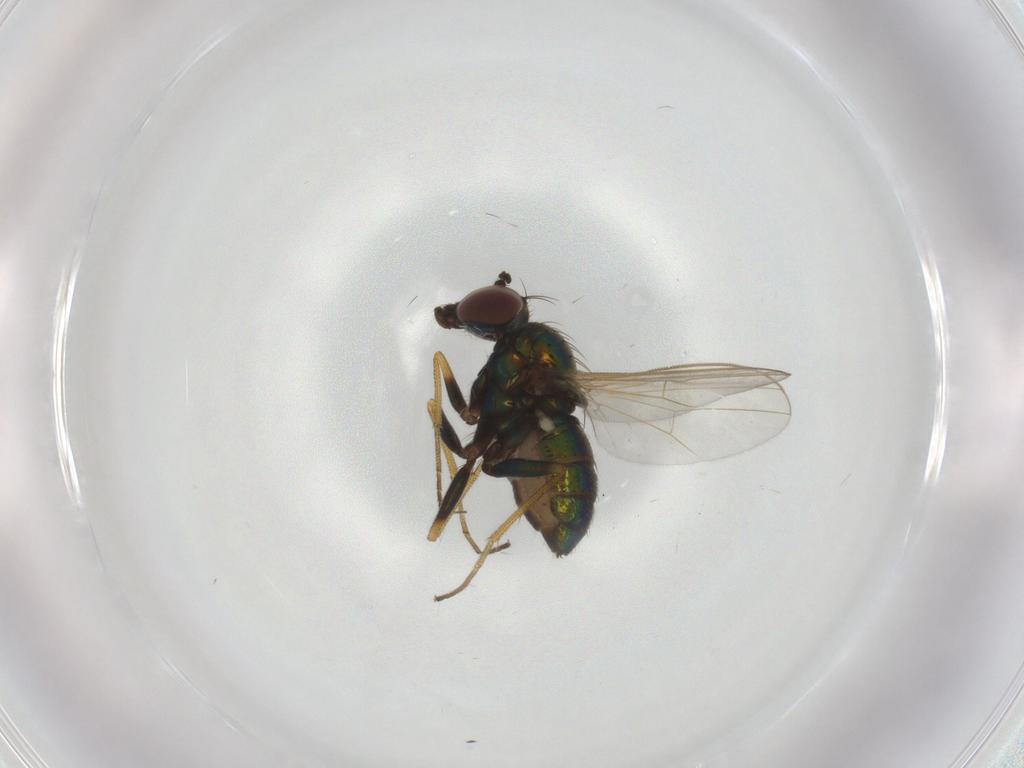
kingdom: Animalia
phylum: Arthropoda
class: Insecta
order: Diptera
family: Dolichopodidae
